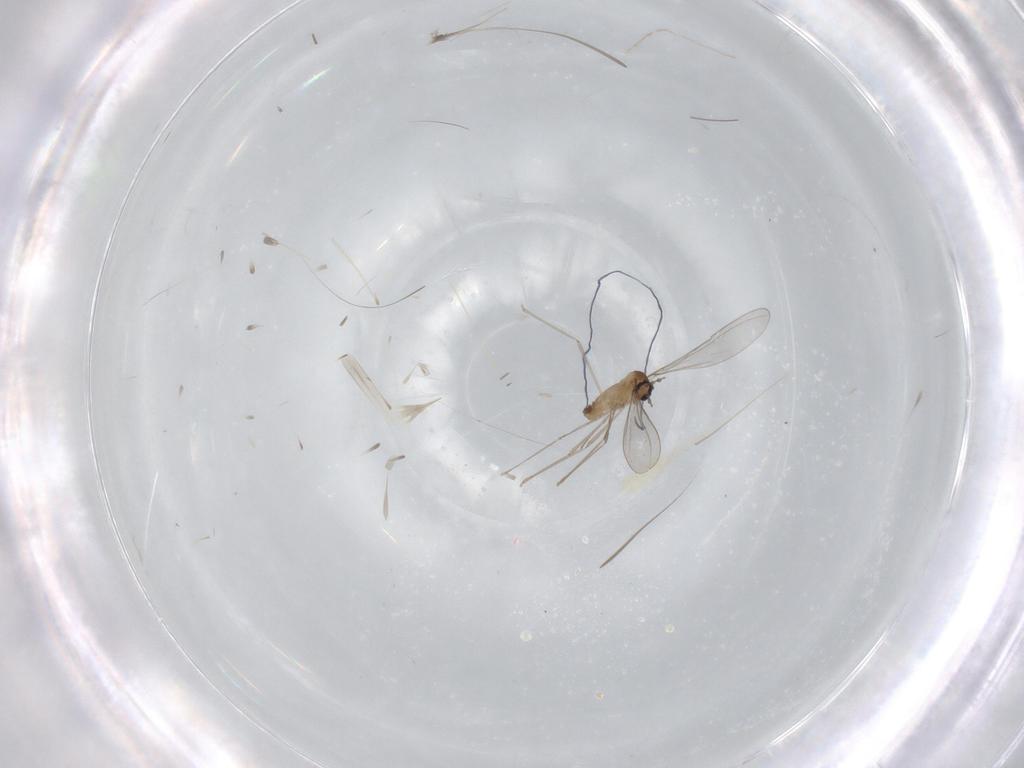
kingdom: Animalia
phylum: Arthropoda
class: Insecta
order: Diptera
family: Cecidomyiidae
